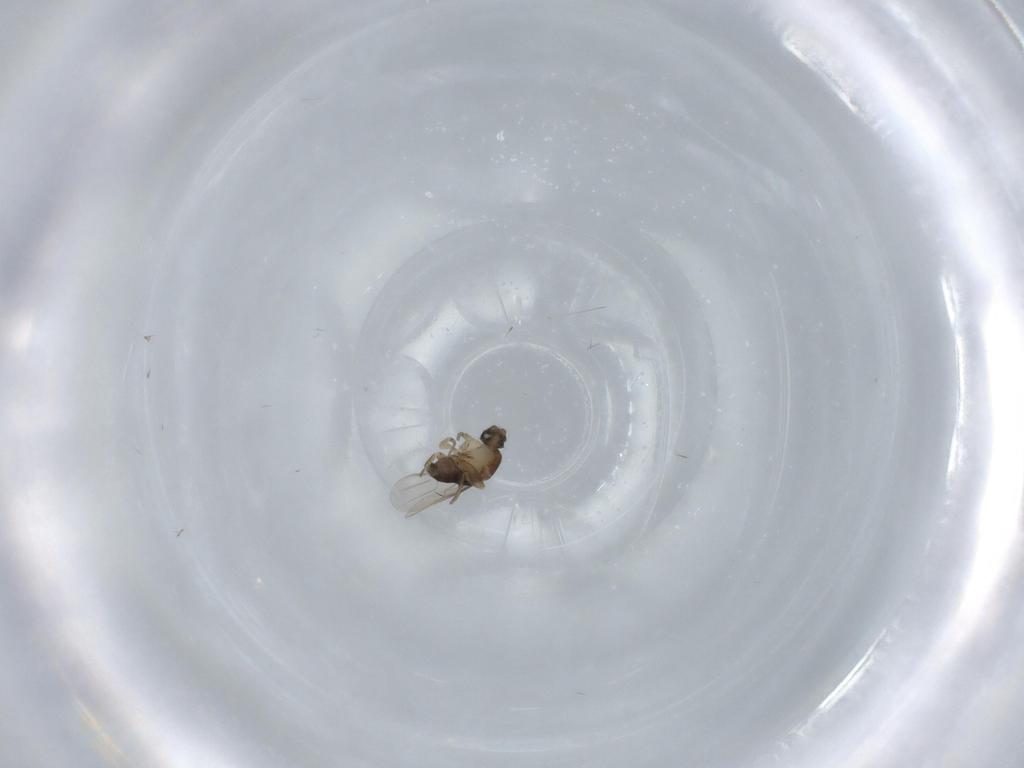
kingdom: Animalia
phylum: Arthropoda
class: Insecta
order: Diptera
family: Phoridae
